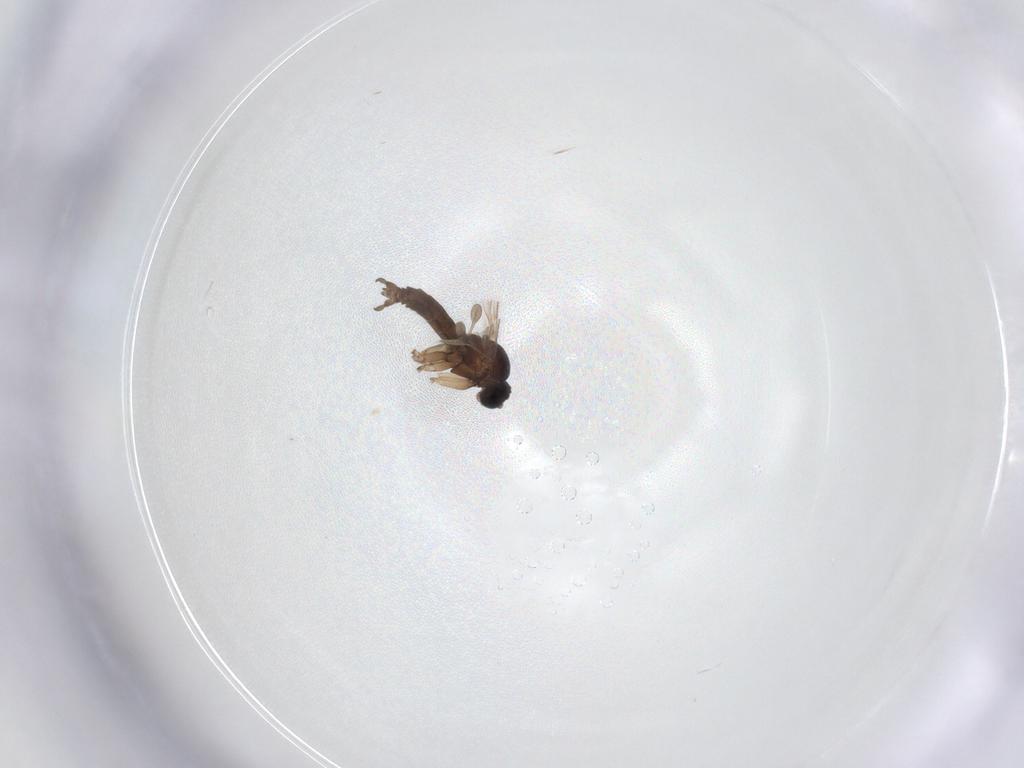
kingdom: Animalia
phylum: Arthropoda
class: Insecta
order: Diptera
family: Sciaridae
